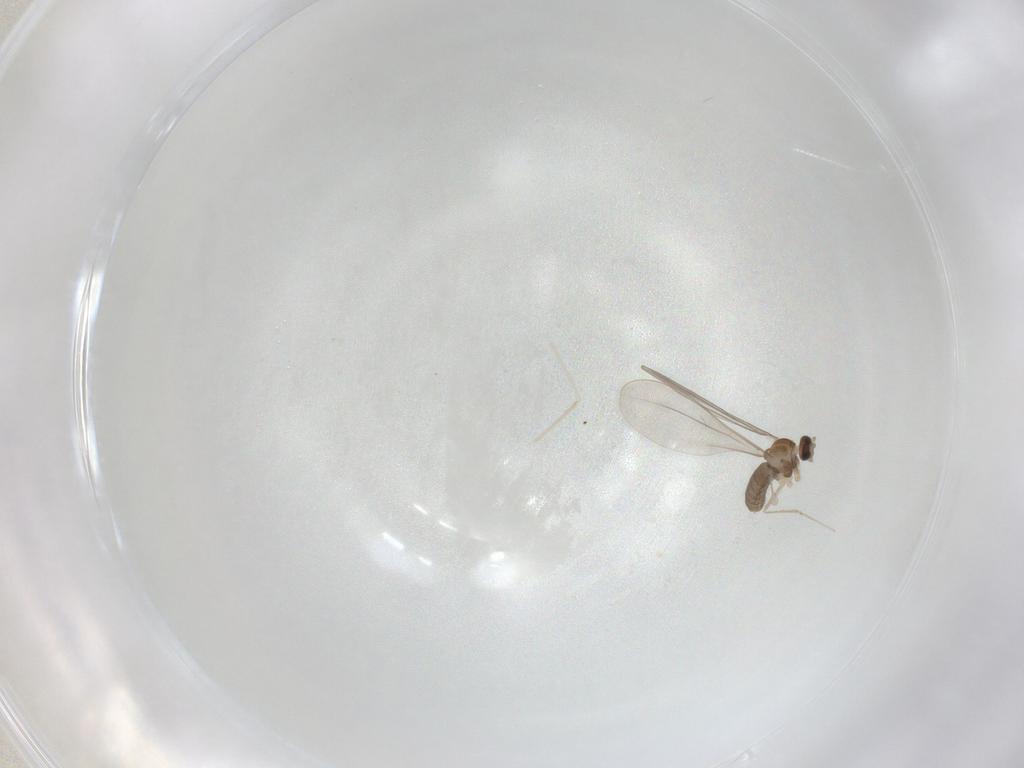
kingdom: Animalia
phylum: Arthropoda
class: Insecta
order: Diptera
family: Cecidomyiidae
